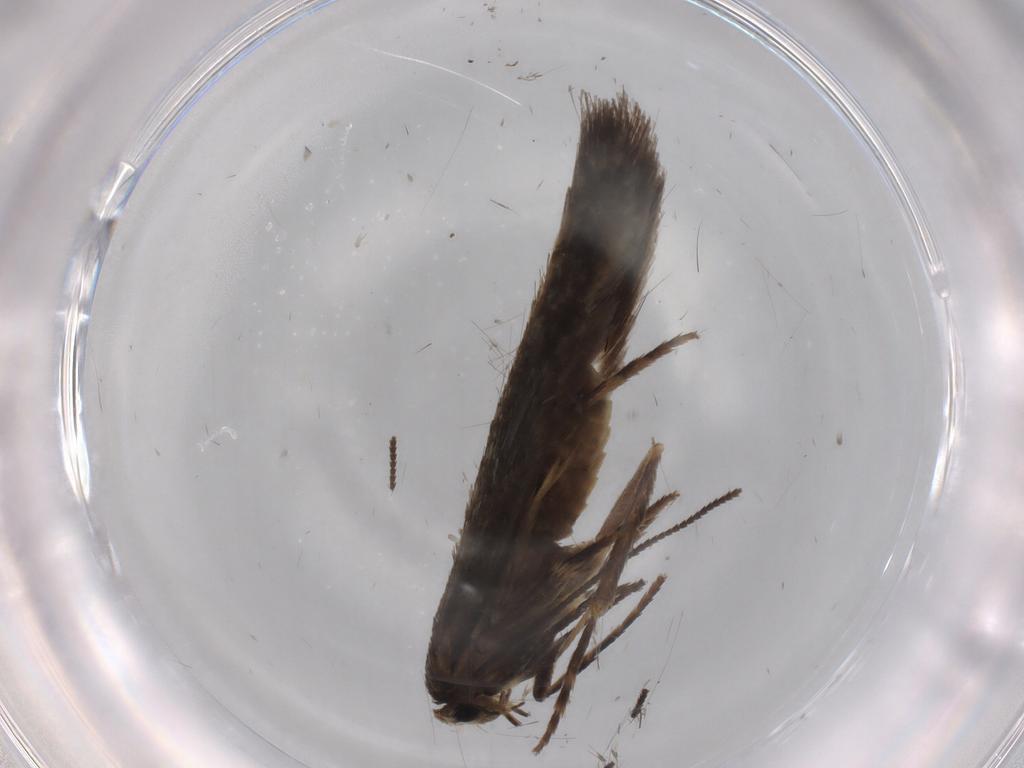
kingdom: Animalia
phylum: Arthropoda
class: Insecta
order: Lepidoptera
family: Nepticulidae
